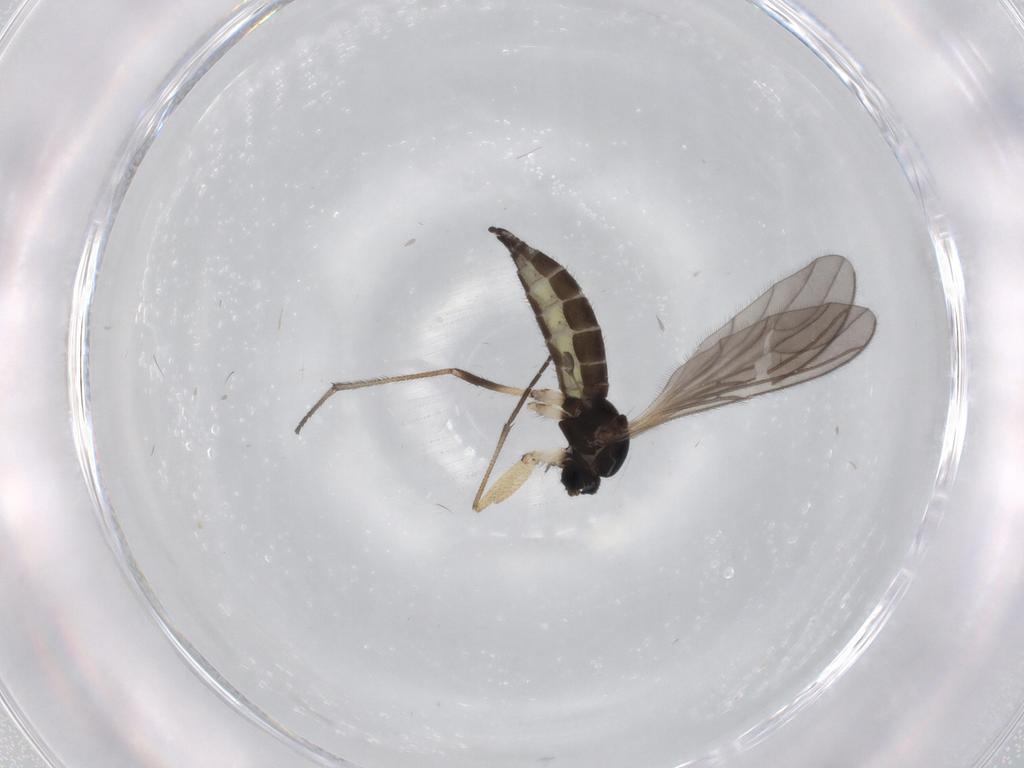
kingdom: Animalia
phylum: Arthropoda
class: Insecta
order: Diptera
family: Sciaridae
